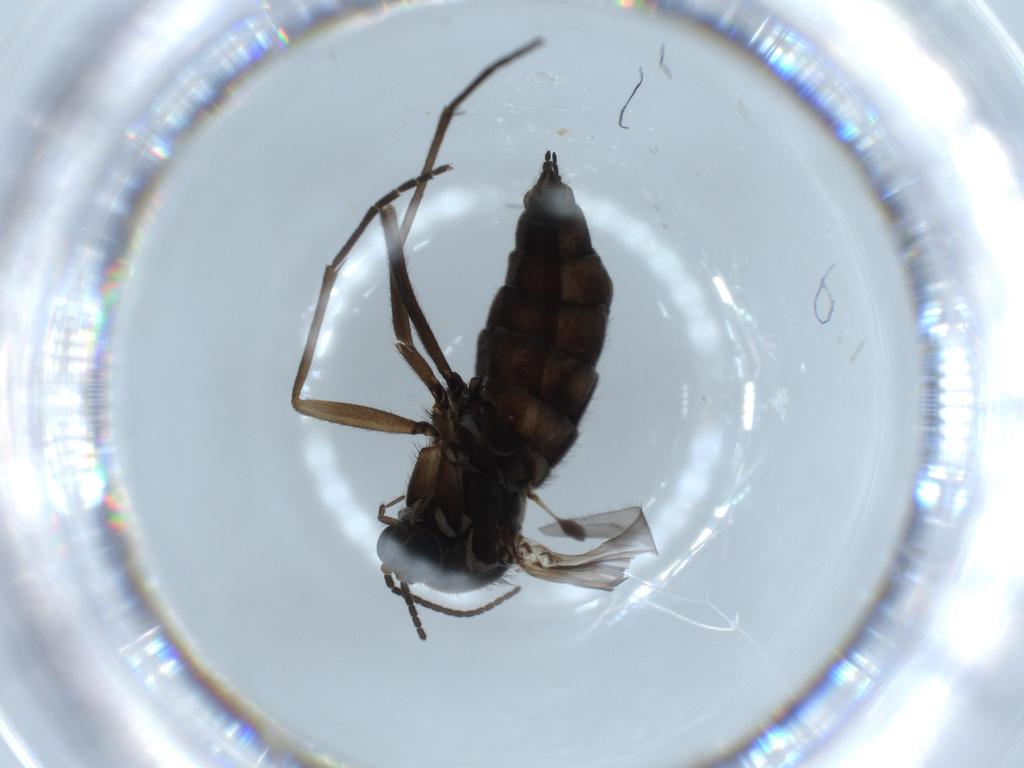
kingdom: Animalia
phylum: Arthropoda
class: Insecta
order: Diptera
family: Sciaridae
